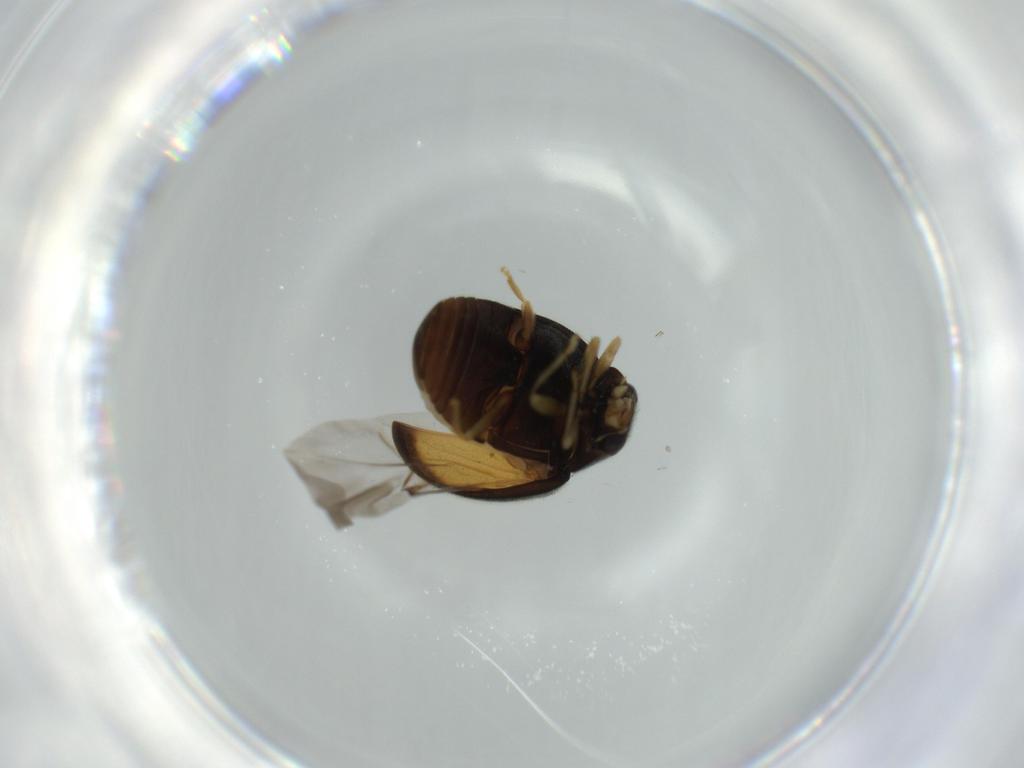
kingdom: Animalia
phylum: Arthropoda
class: Insecta
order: Coleoptera
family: Coccinellidae
